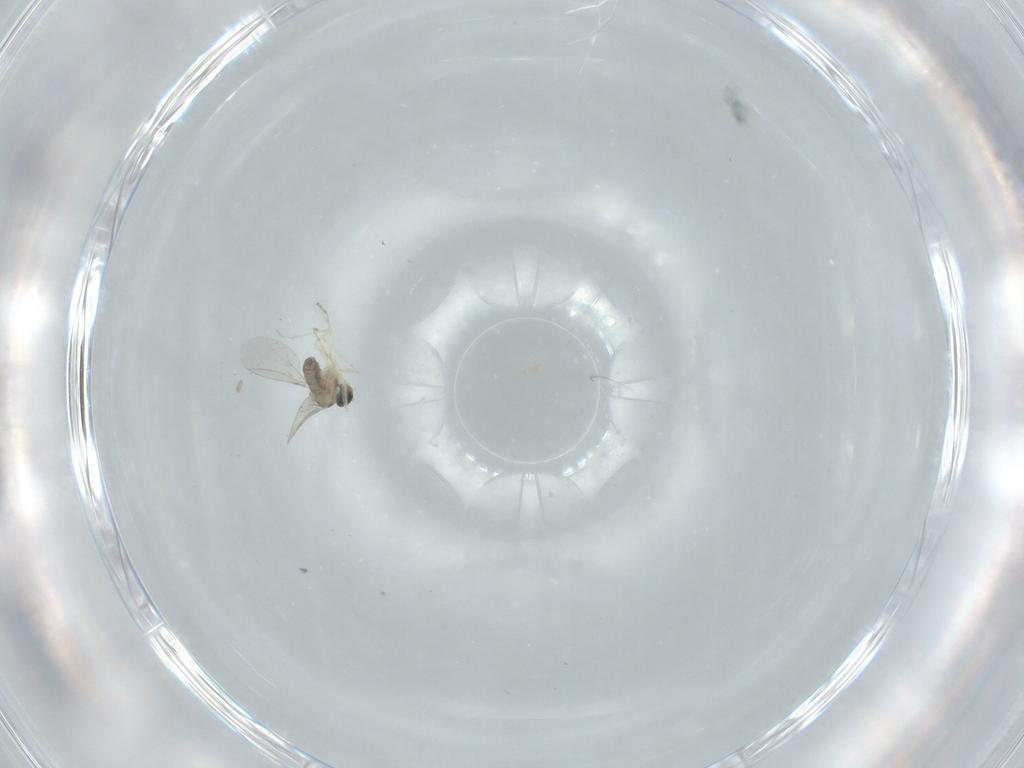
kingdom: Animalia
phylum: Arthropoda
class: Insecta
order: Diptera
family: Cecidomyiidae
